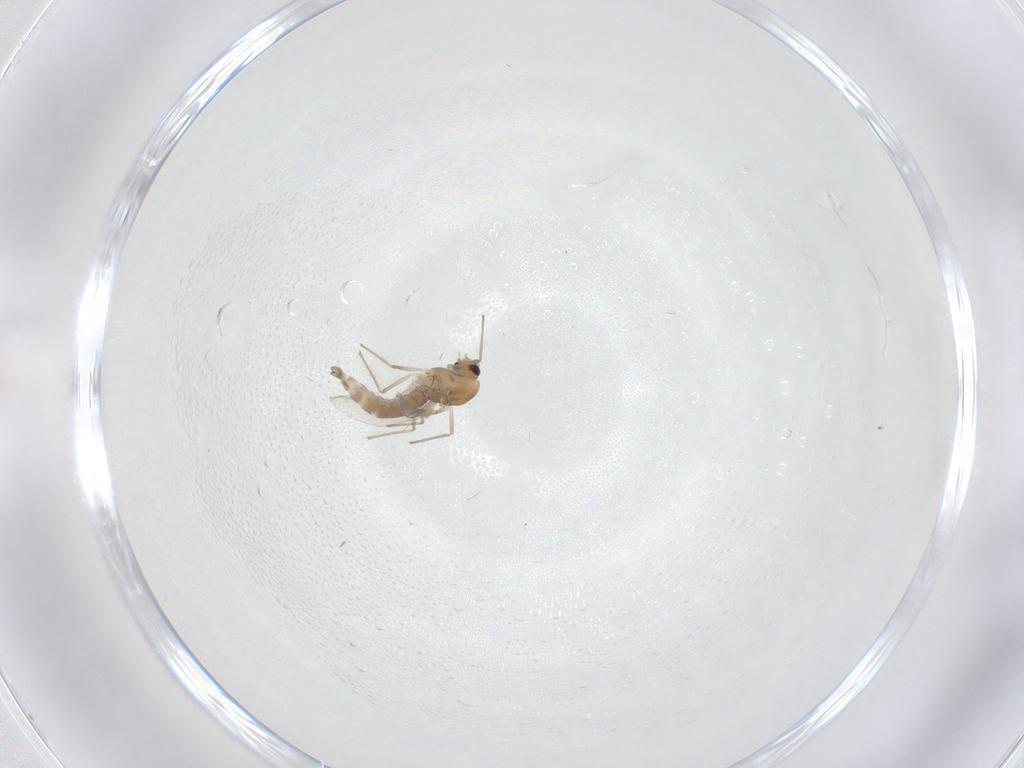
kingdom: Animalia
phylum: Arthropoda
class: Insecta
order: Diptera
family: Chironomidae
